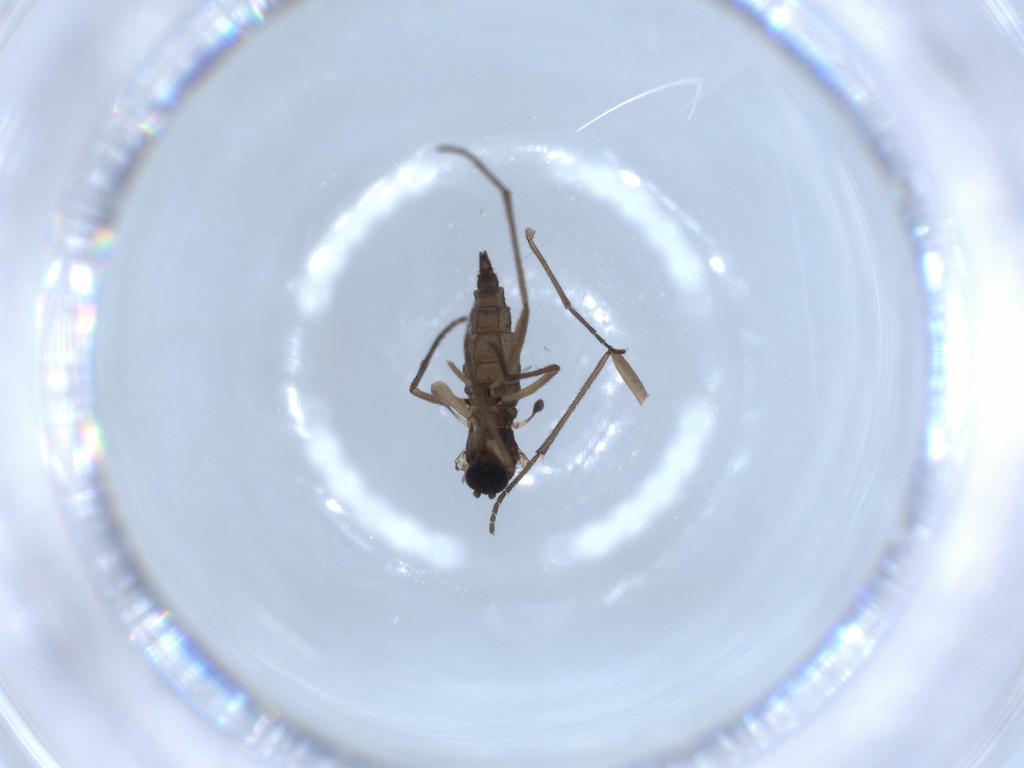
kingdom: Animalia
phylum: Arthropoda
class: Insecta
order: Diptera
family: Sciaridae
